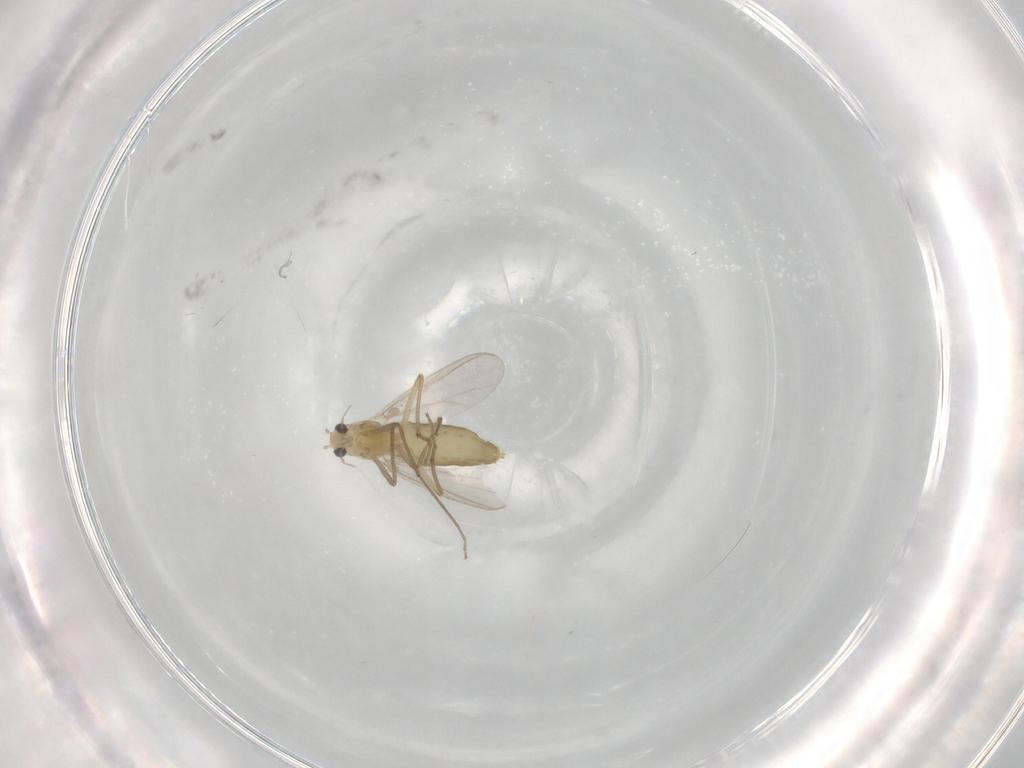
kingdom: Animalia
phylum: Arthropoda
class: Insecta
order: Diptera
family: Chironomidae
